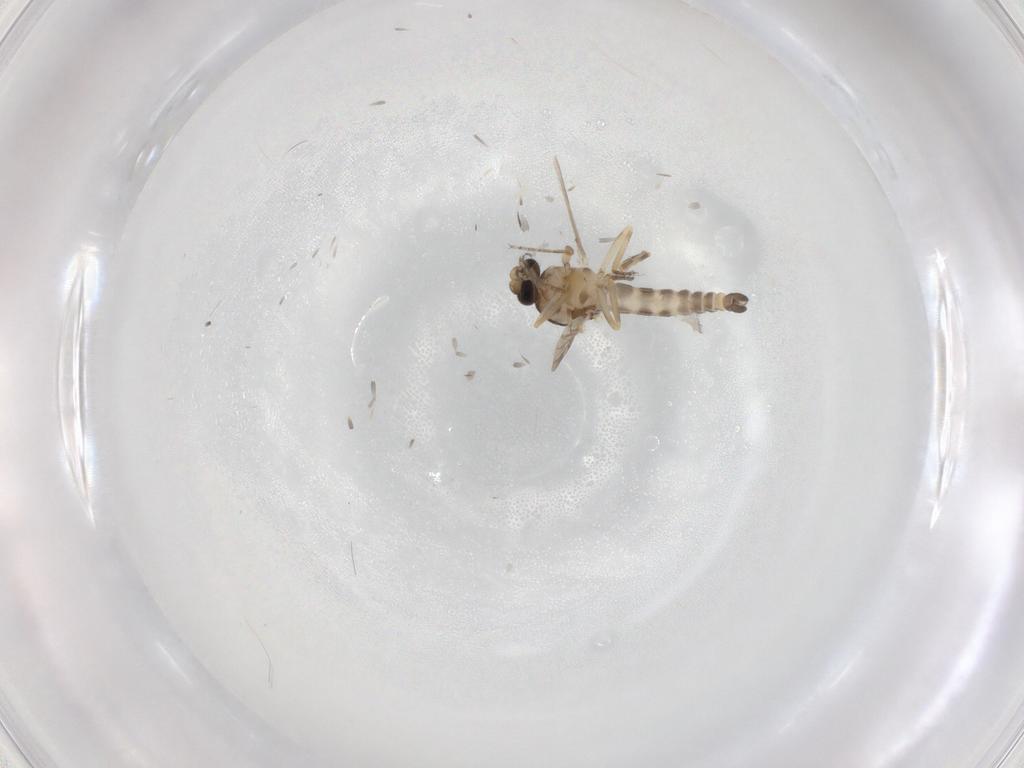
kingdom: Animalia
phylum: Arthropoda
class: Insecta
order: Diptera
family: Ceratopogonidae
